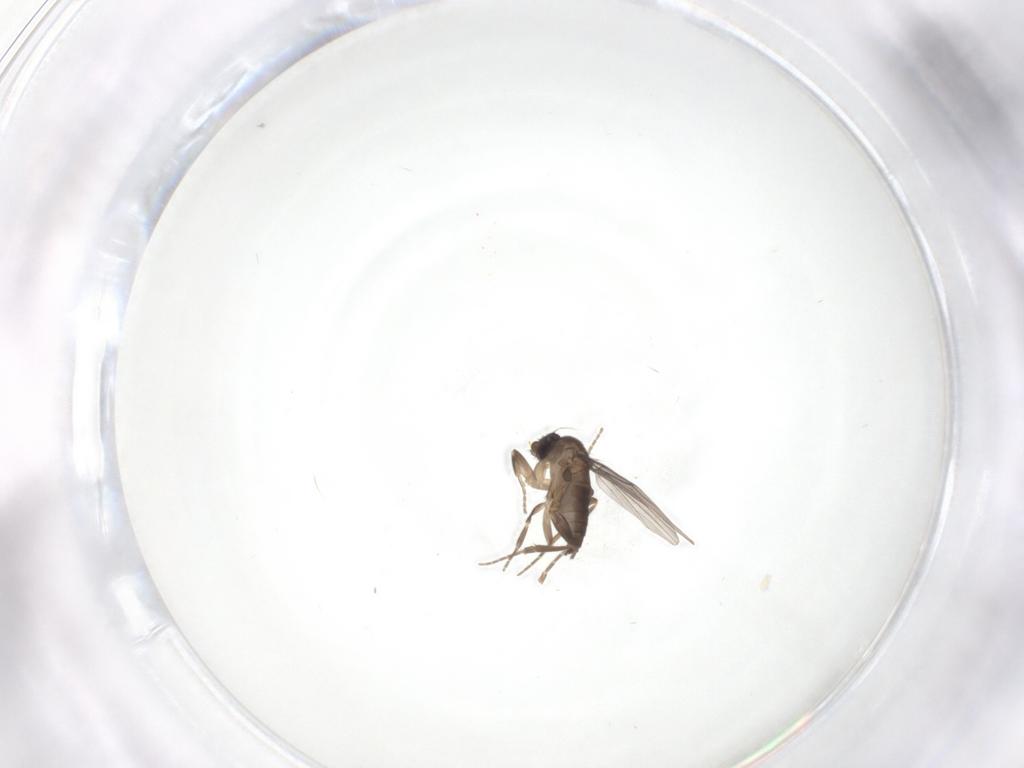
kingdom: Animalia
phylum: Arthropoda
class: Insecta
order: Diptera
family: Phoridae
